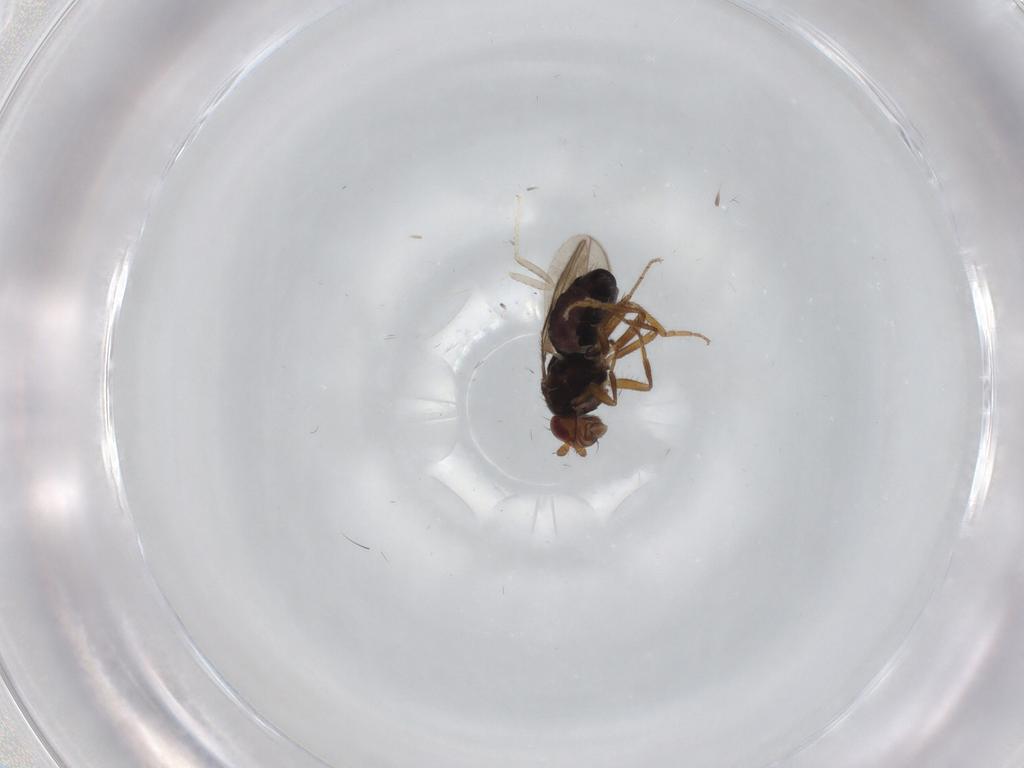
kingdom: Animalia
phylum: Arthropoda
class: Insecta
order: Diptera
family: Sphaeroceridae
